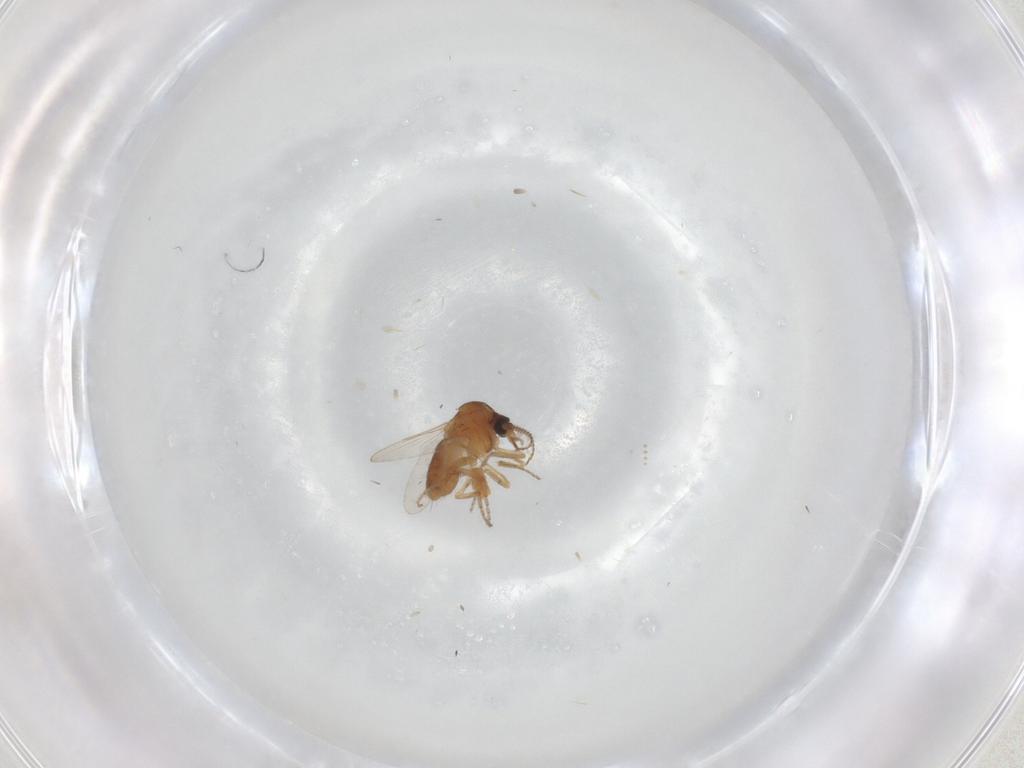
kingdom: Animalia
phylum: Arthropoda
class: Insecta
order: Diptera
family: Ceratopogonidae
